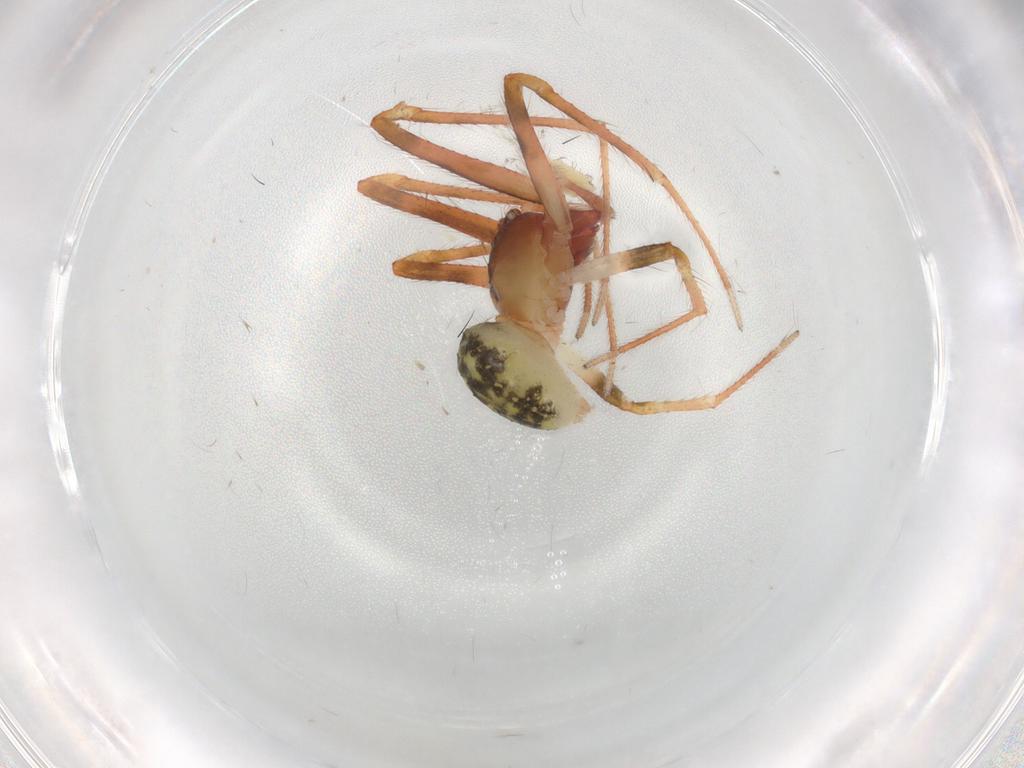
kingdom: Animalia
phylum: Arthropoda
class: Arachnida
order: Araneae
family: Theridiidae
